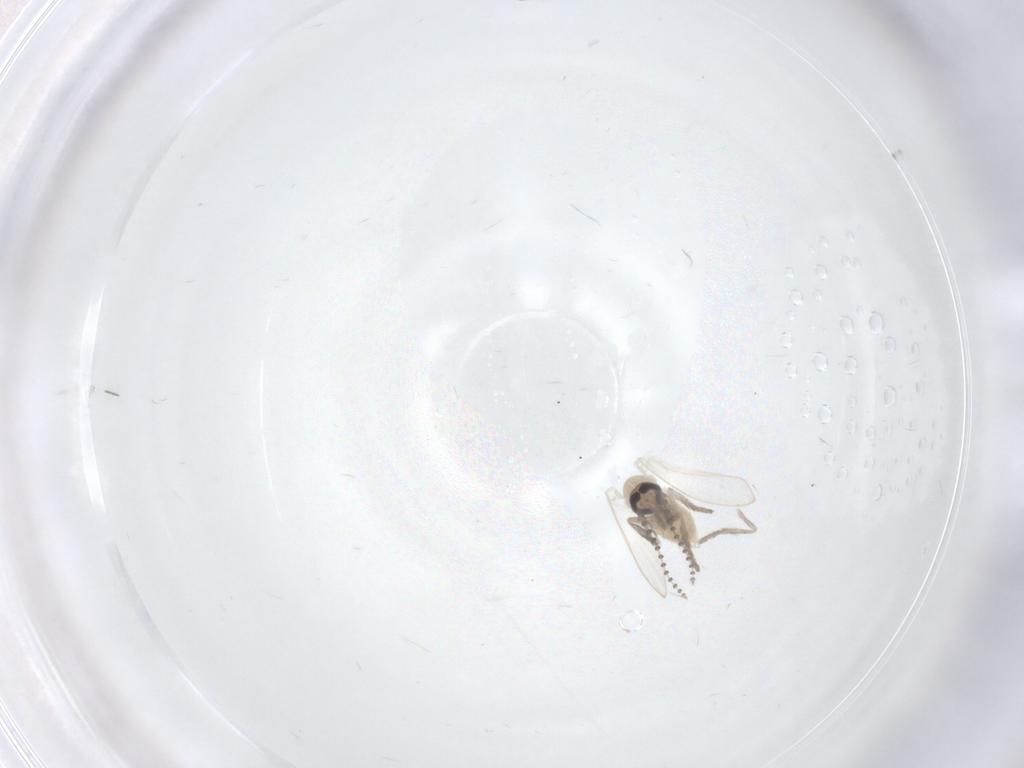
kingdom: Animalia
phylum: Arthropoda
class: Insecta
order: Diptera
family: Psychodidae
